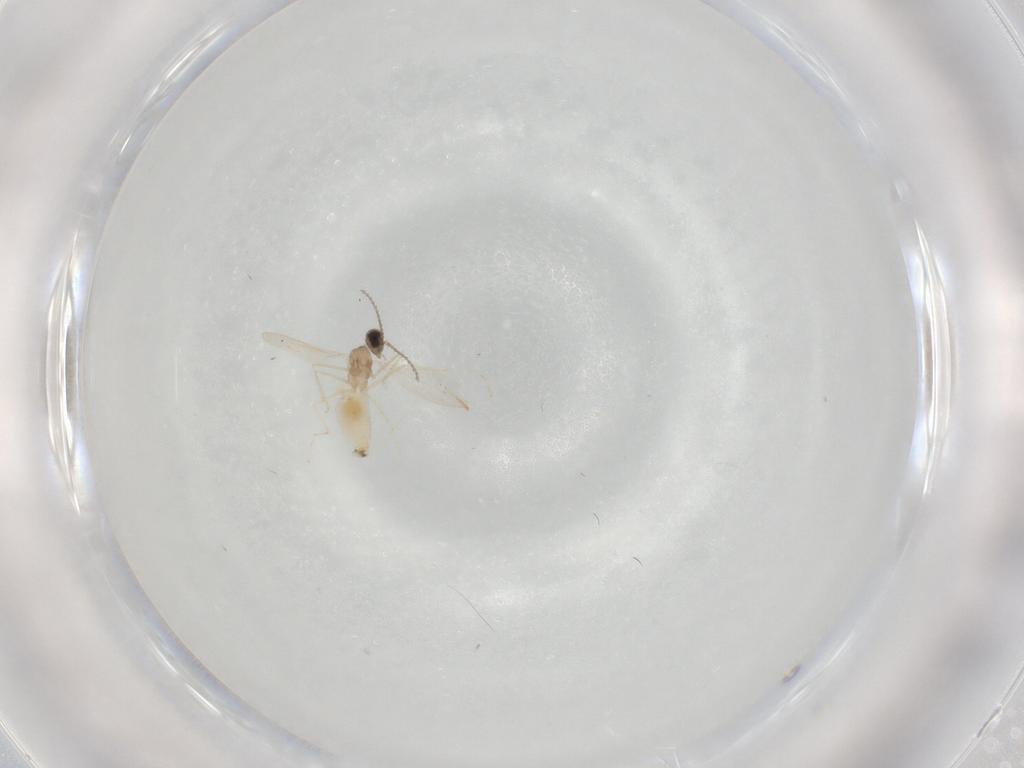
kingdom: Animalia
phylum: Arthropoda
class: Insecta
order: Diptera
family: Cecidomyiidae
